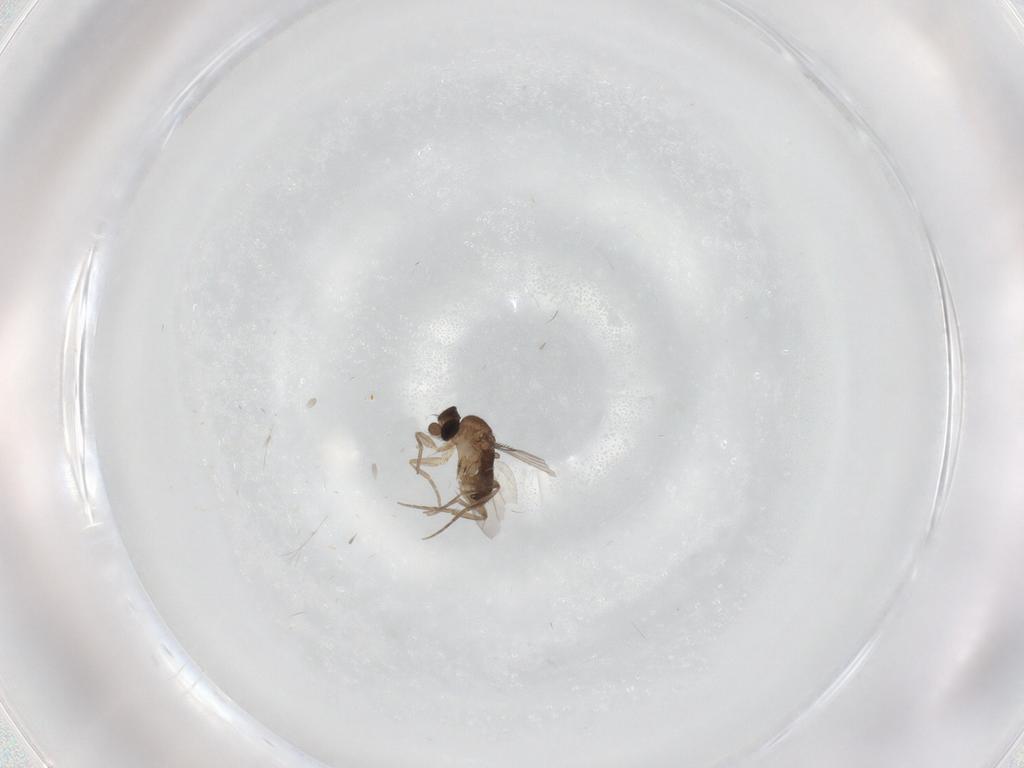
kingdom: Animalia
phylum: Arthropoda
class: Insecta
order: Diptera
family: Phoridae
